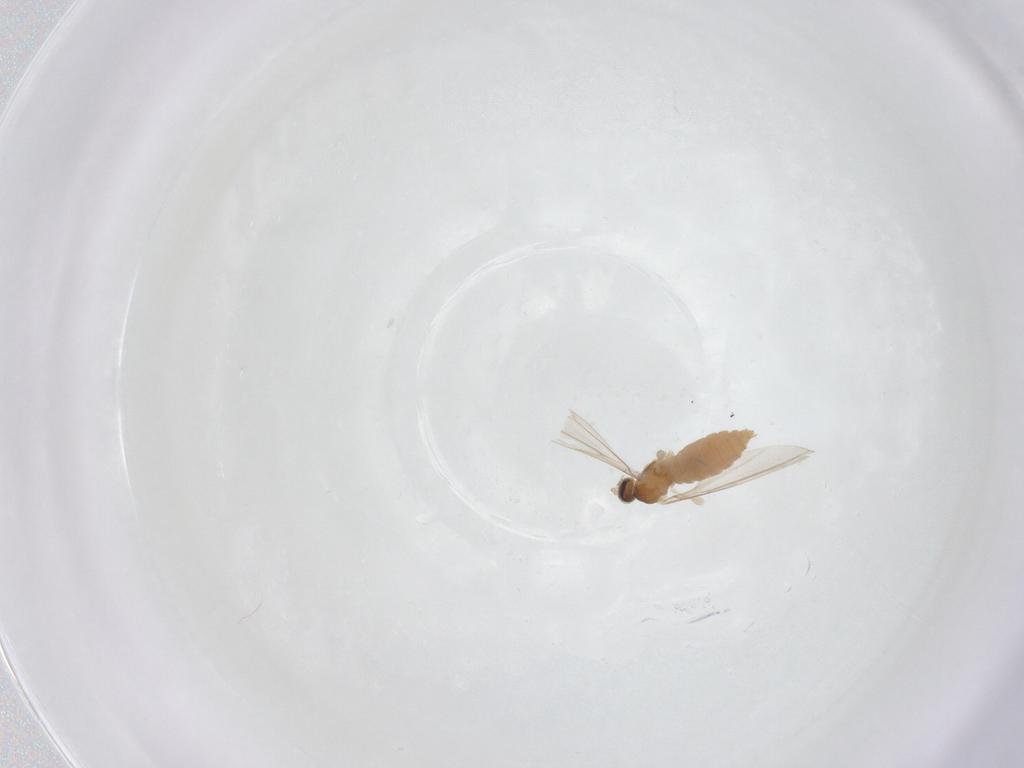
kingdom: Animalia
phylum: Arthropoda
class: Insecta
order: Diptera
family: Cecidomyiidae
